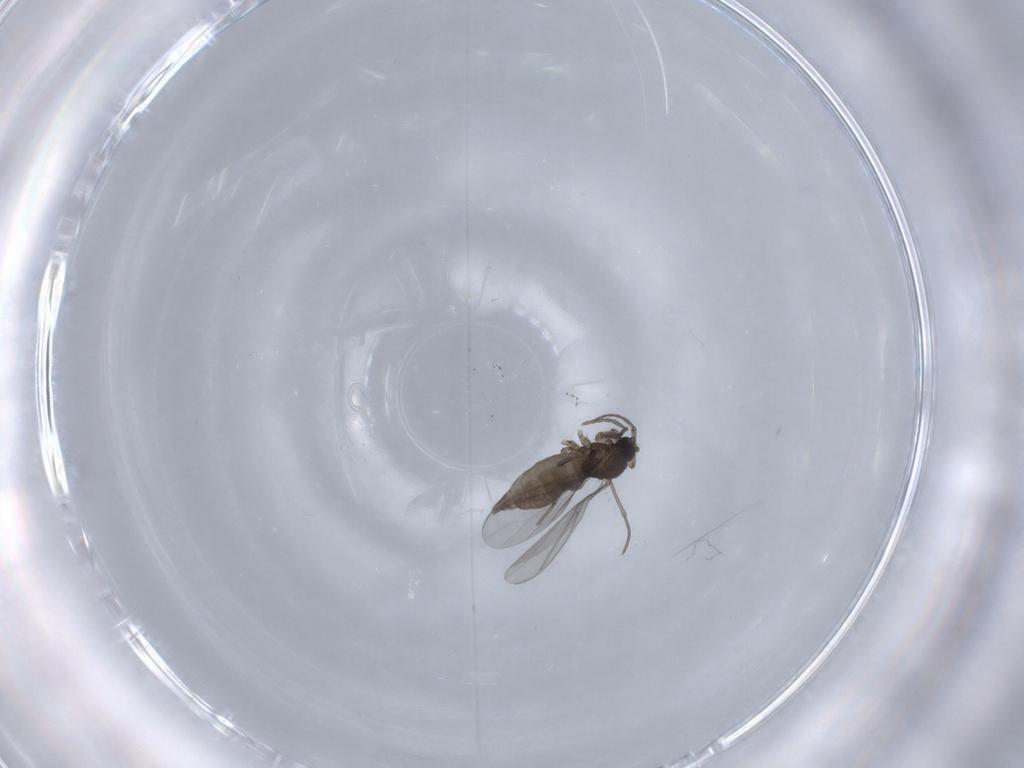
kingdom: Animalia
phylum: Arthropoda
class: Insecta
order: Diptera
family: Sciaridae
